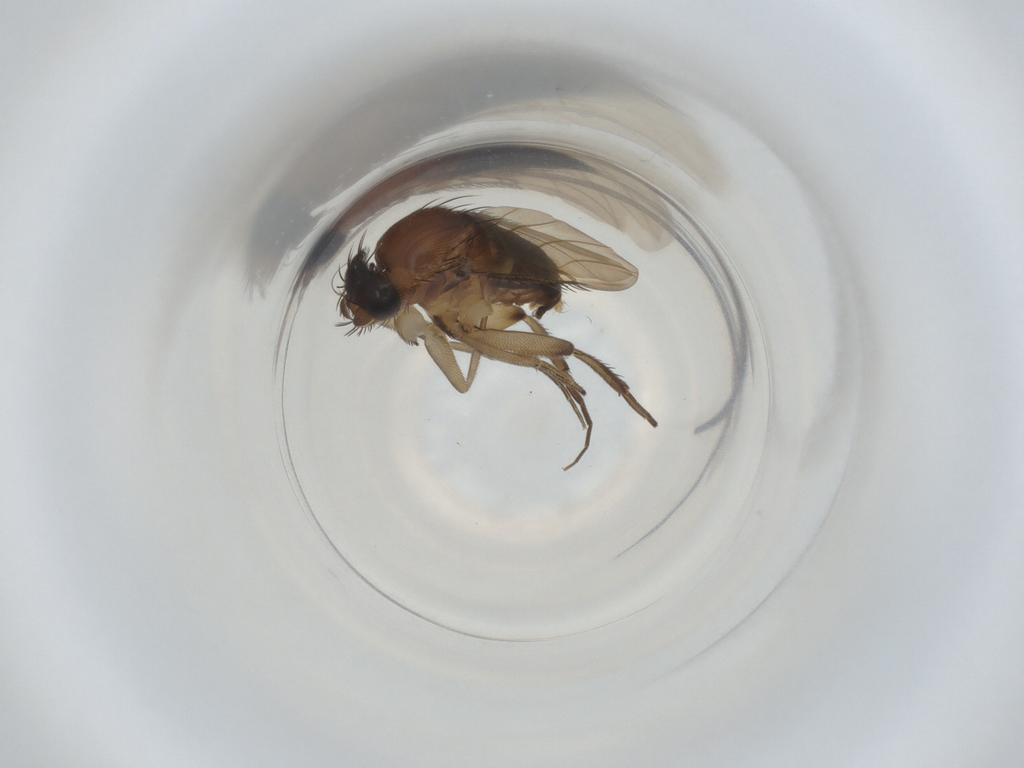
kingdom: Animalia
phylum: Arthropoda
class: Insecta
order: Diptera
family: Phoridae
